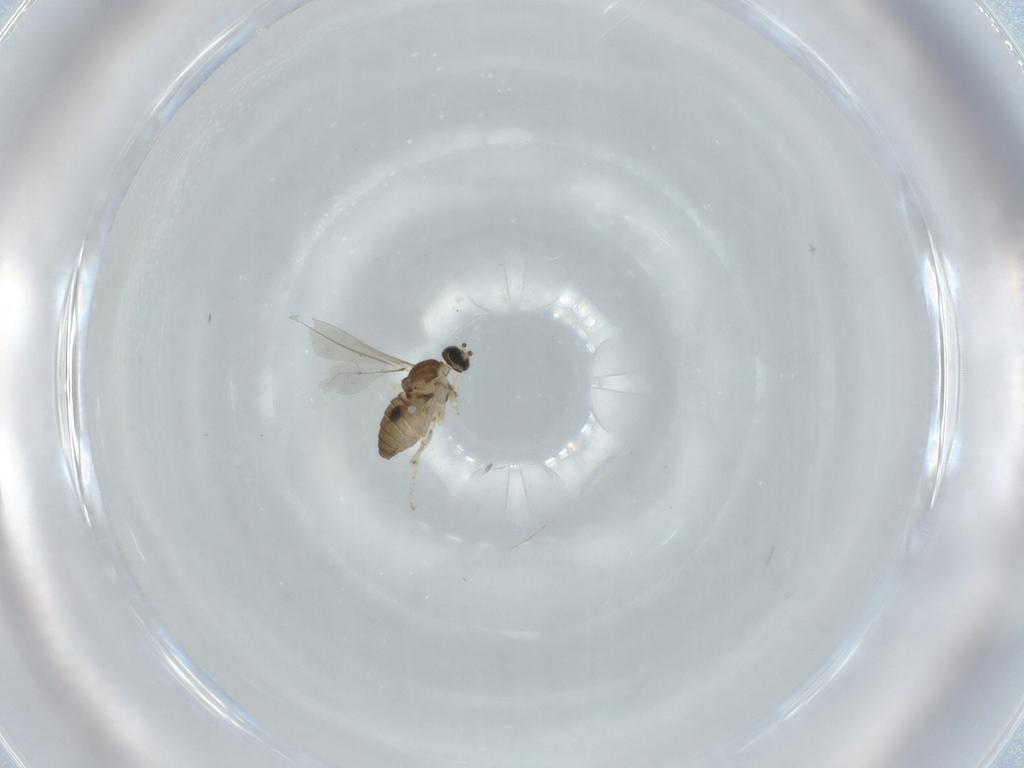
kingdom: Animalia
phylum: Arthropoda
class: Insecta
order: Diptera
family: Cecidomyiidae
